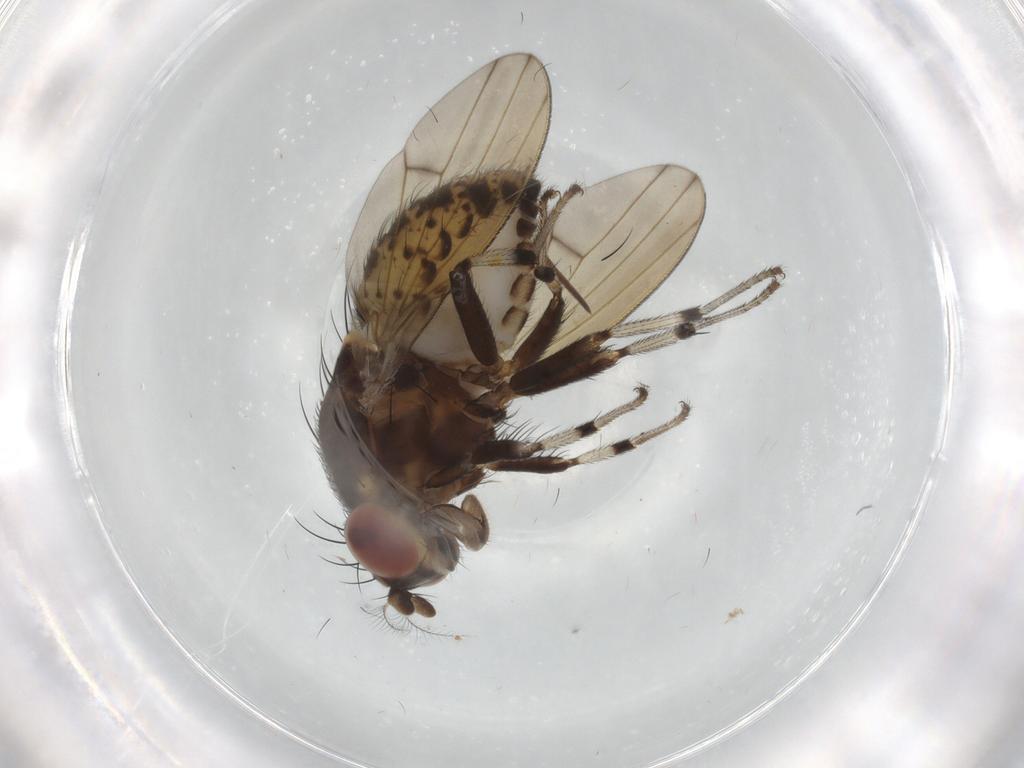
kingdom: Animalia
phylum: Arthropoda
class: Insecta
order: Diptera
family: Lauxaniidae
